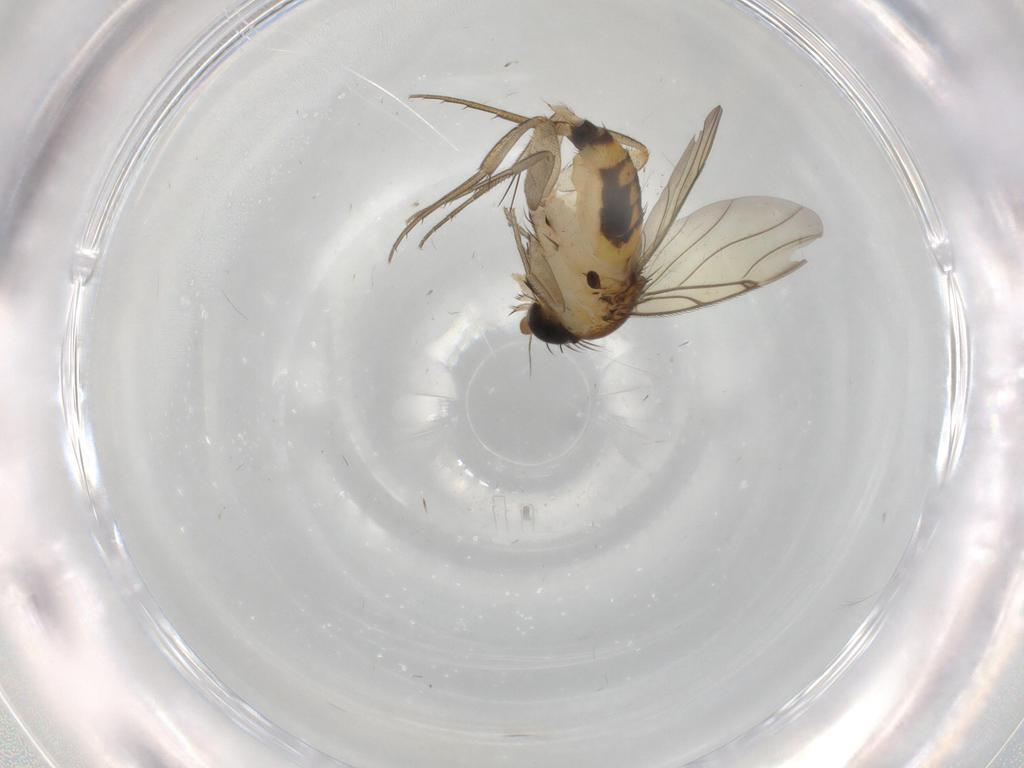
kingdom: Animalia
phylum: Arthropoda
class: Insecta
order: Diptera
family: Phoridae
